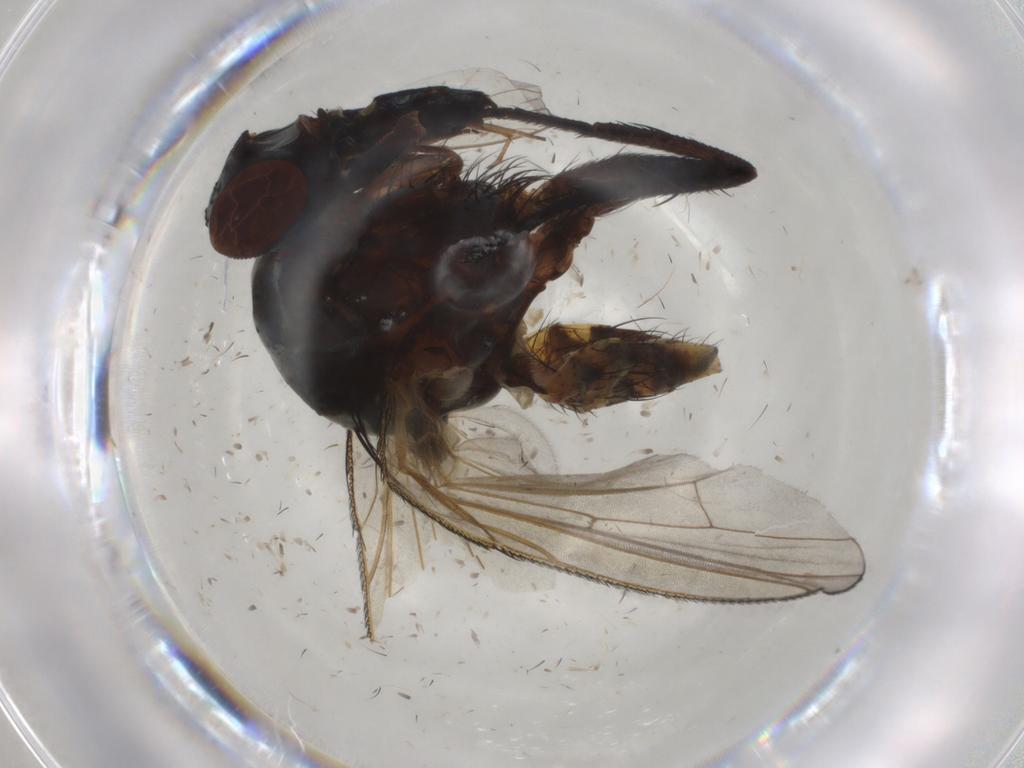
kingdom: Animalia
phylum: Arthropoda
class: Insecta
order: Diptera
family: Chloropidae
